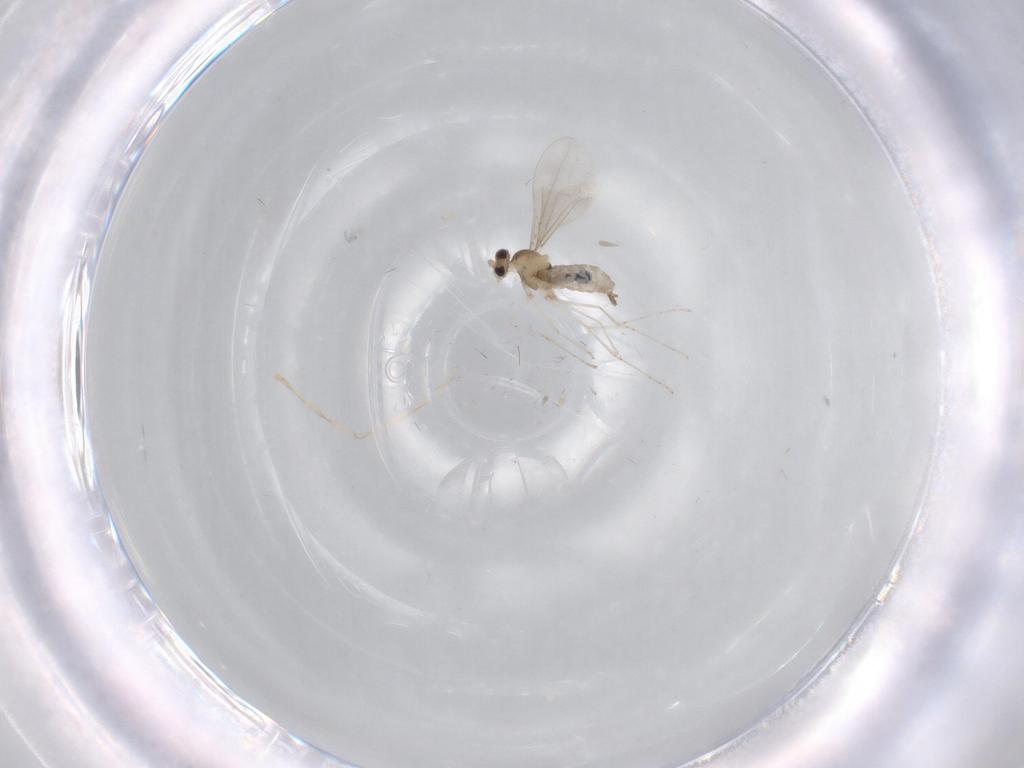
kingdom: Animalia
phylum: Arthropoda
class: Insecta
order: Diptera
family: Cecidomyiidae
